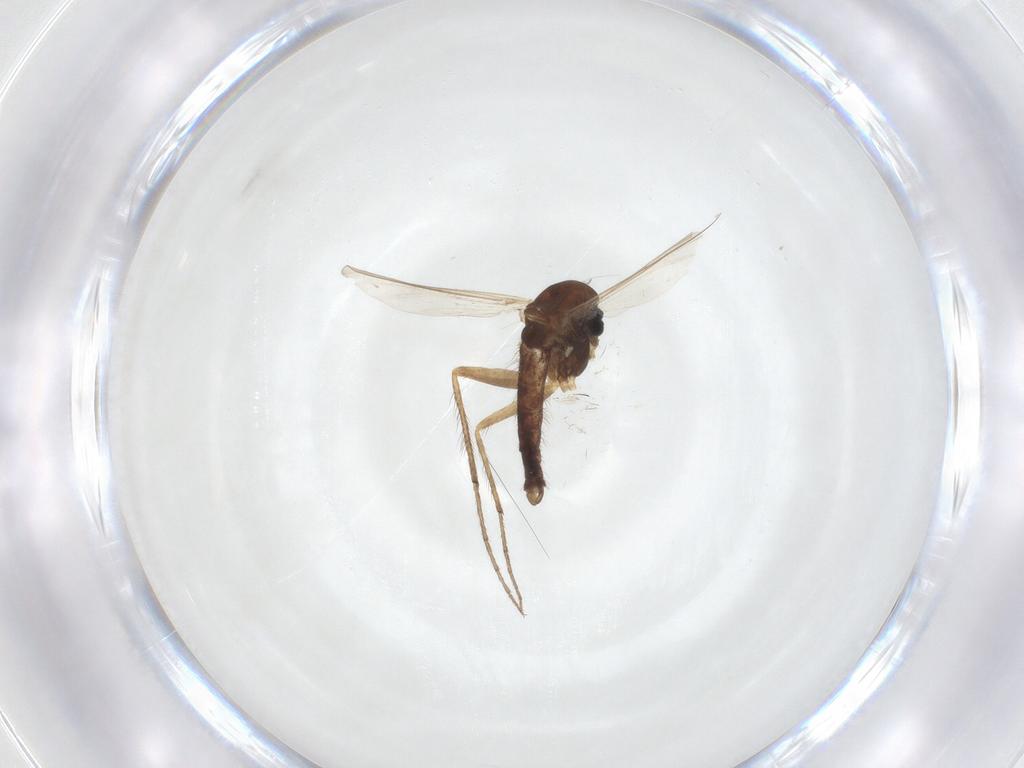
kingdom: Animalia
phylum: Arthropoda
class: Insecta
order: Diptera
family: Chironomidae
